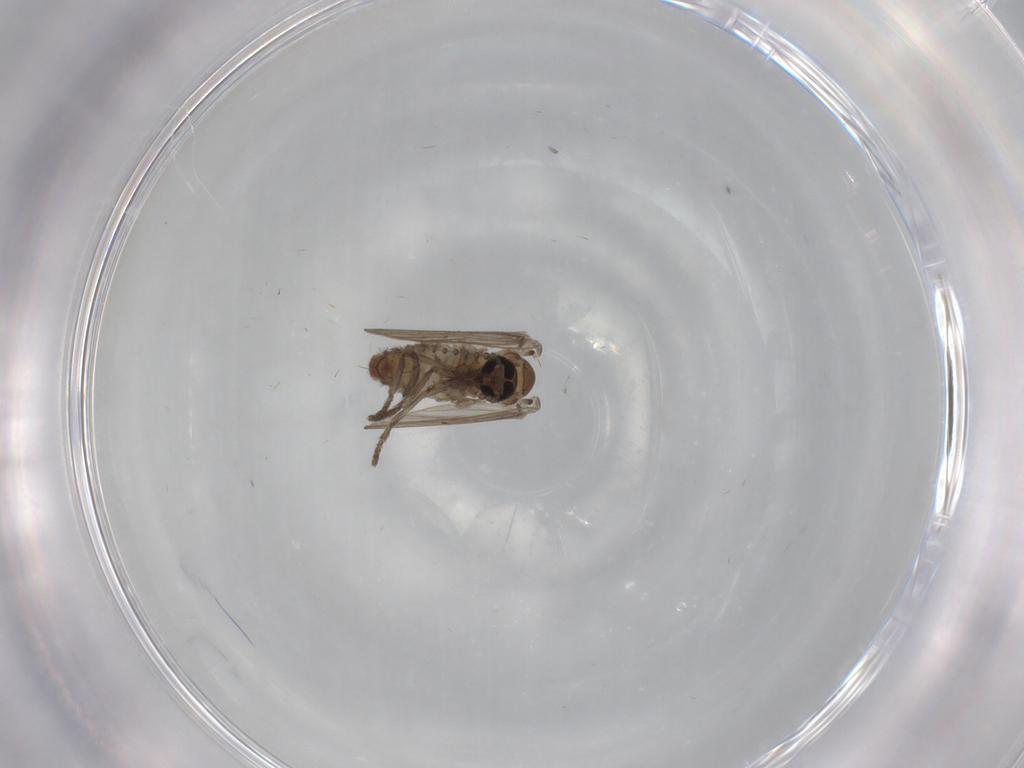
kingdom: Animalia
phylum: Arthropoda
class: Insecta
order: Diptera
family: Psychodidae
